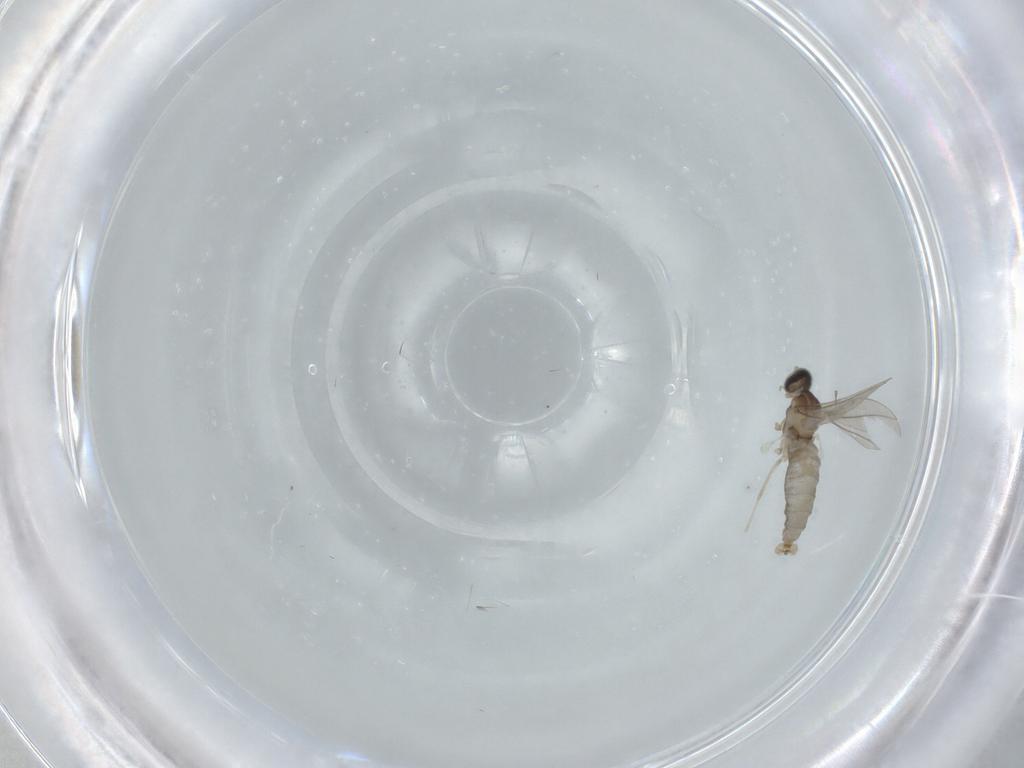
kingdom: Animalia
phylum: Arthropoda
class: Insecta
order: Diptera
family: Cecidomyiidae
